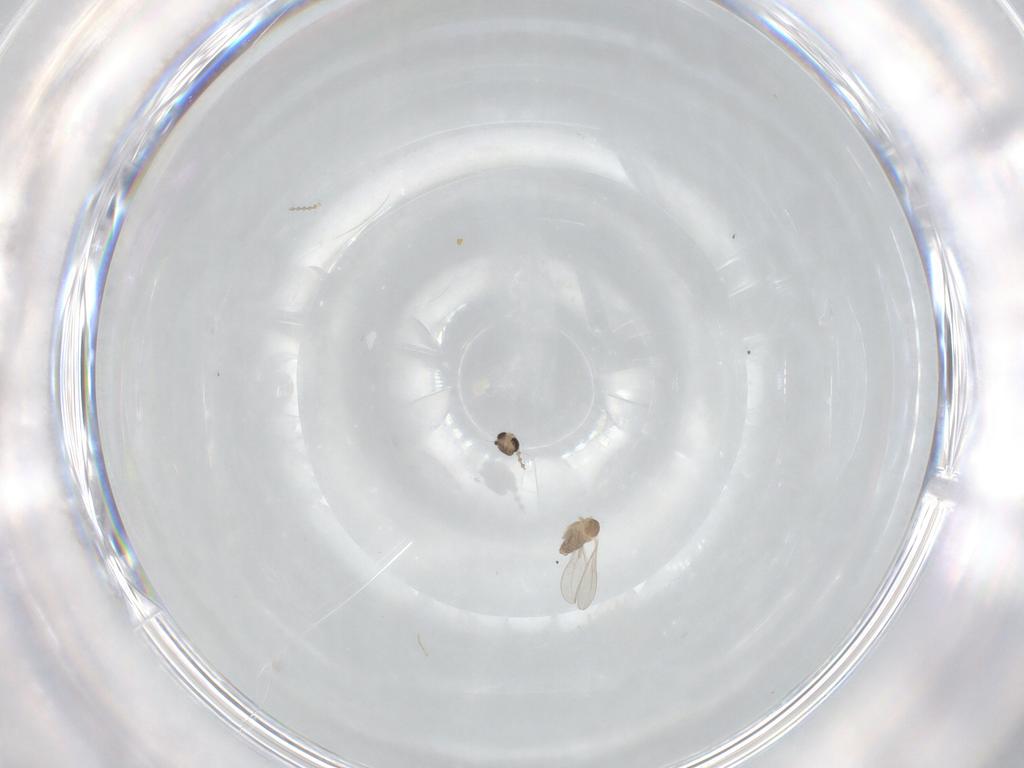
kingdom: Animalia
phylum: Arthropoda
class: Insecta
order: Diptera
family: Cecidomyiidae
